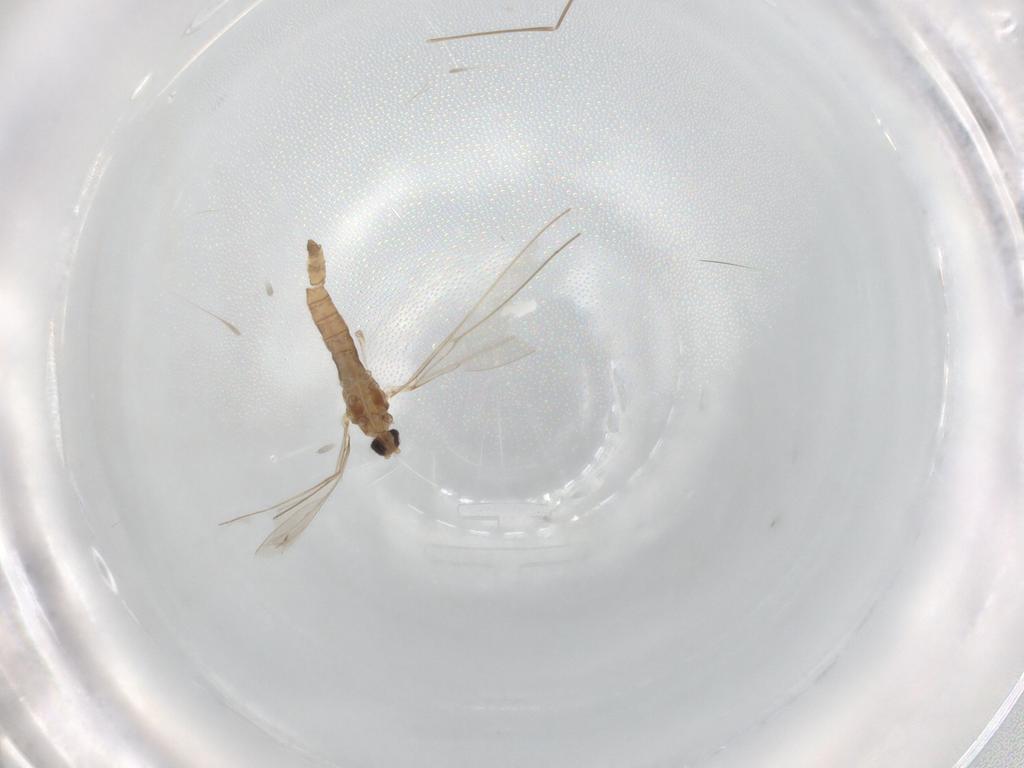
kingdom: Animalia
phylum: Arthropoda
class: Insecta
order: Diptera
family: Cecidomyiidae
